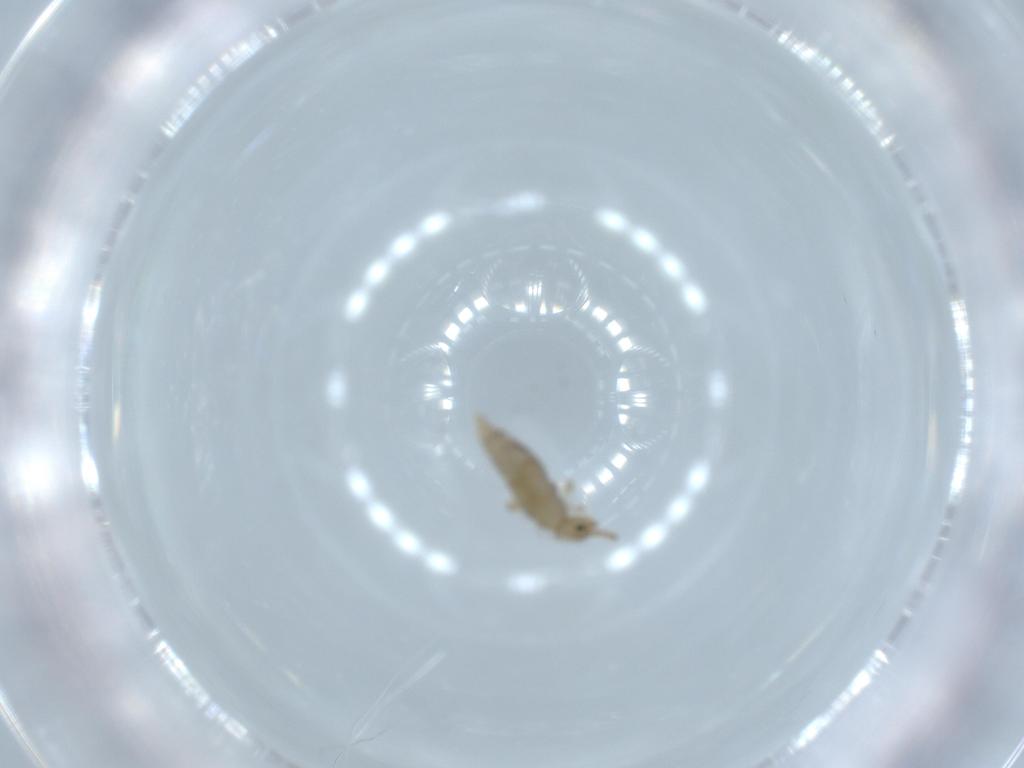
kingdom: Animalia
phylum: Arthropoda
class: Collembola
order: Entomobryomorpha
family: Entomobryidae
